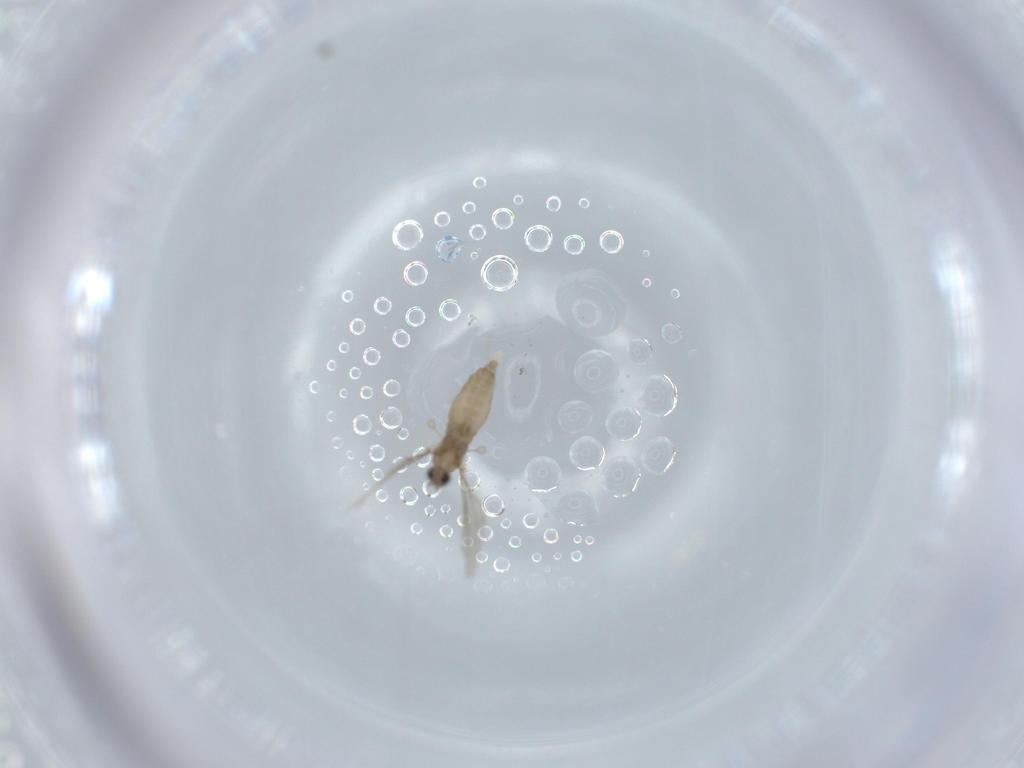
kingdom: Animalia
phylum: Arthropoda
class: Insecta
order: Diptera
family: Cecidomyiidae
